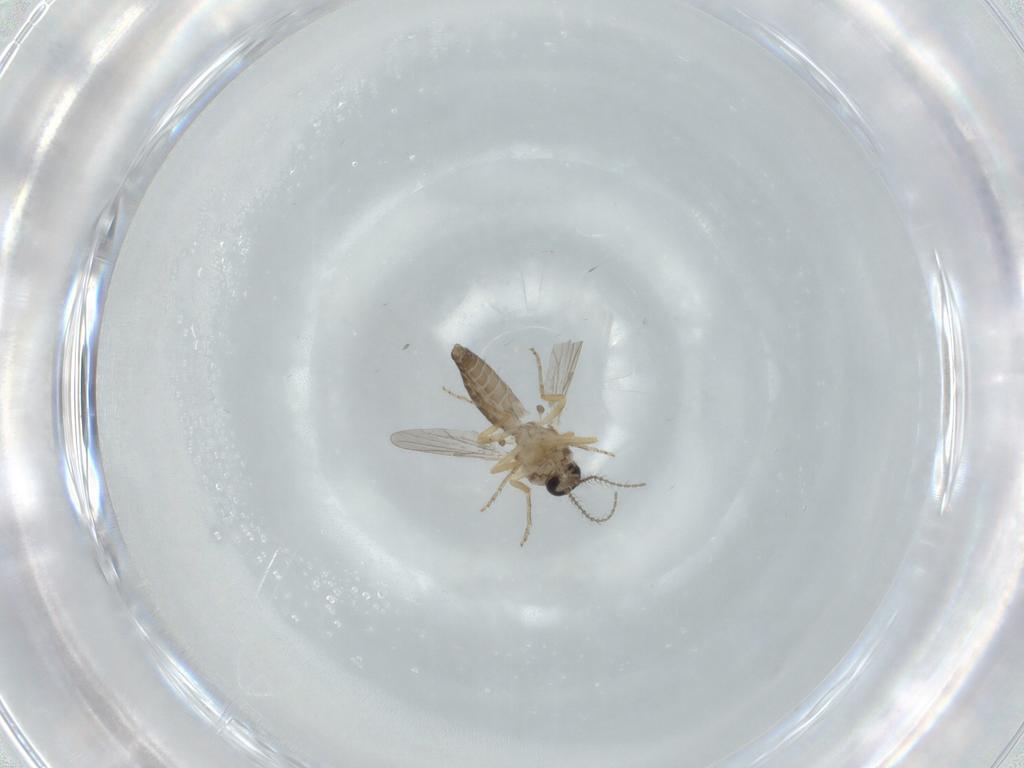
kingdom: Animalia
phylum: Arthropoda
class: Insecta
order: Diptera
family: Ceratopogonidae
